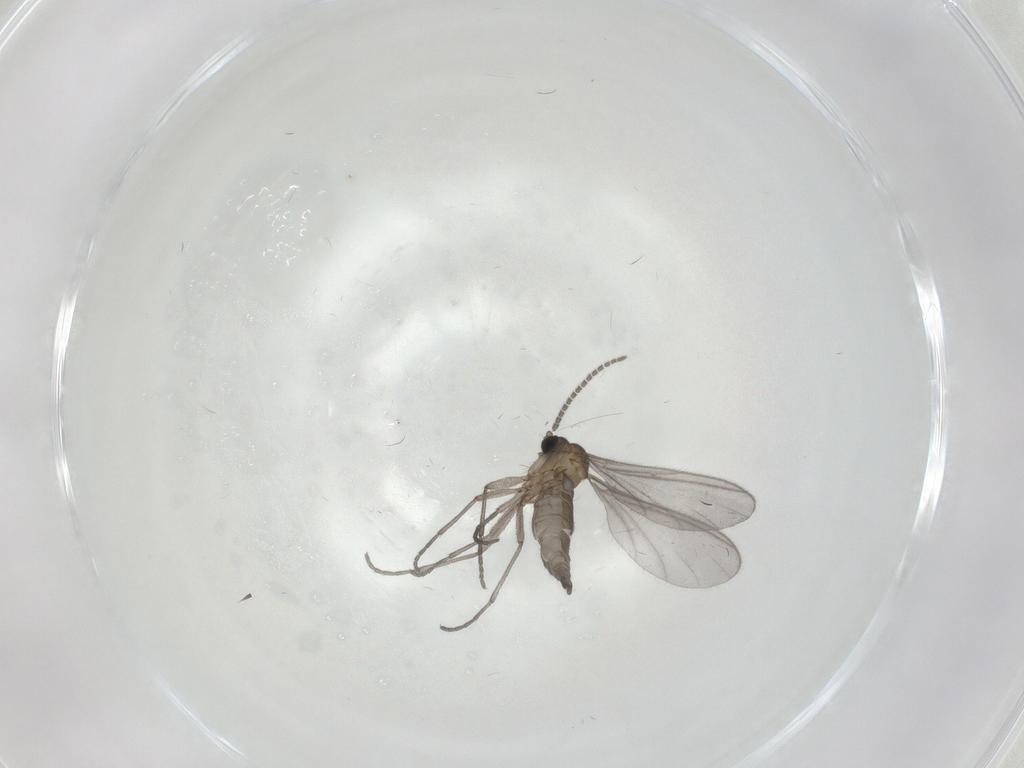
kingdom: Animalia
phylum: Arthropoda
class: Insecta
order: Diptera
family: Sciaridae
